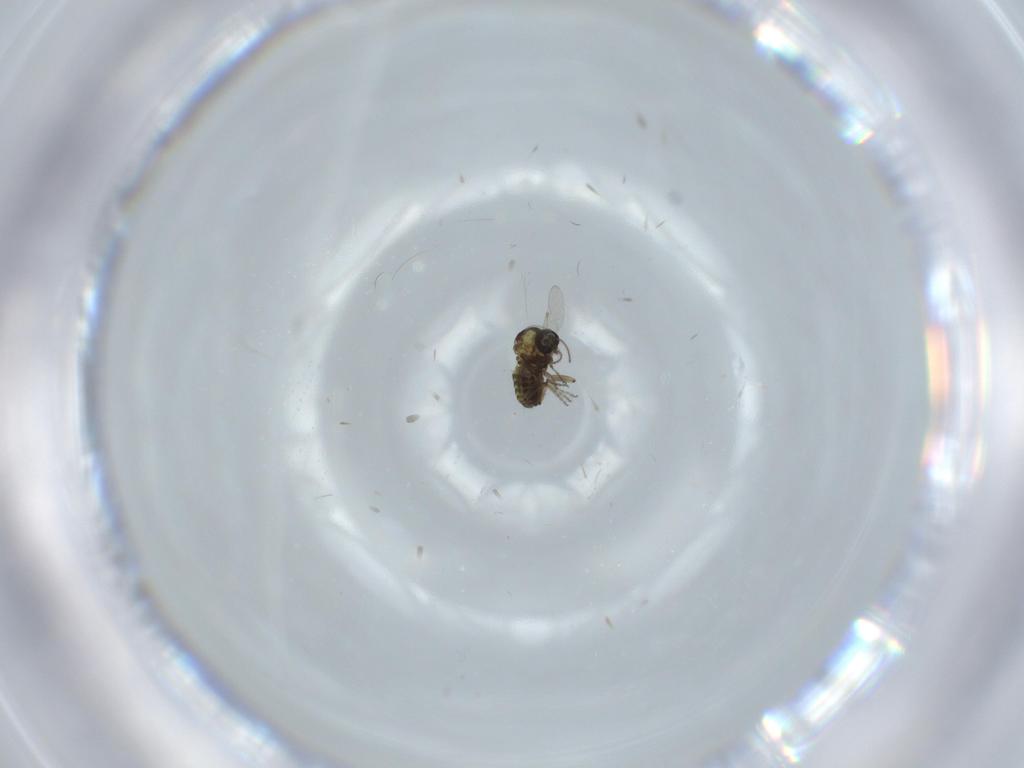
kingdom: Animalia
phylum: Arthropoda
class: Insecta
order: Diptera
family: Ceratopogonidae
